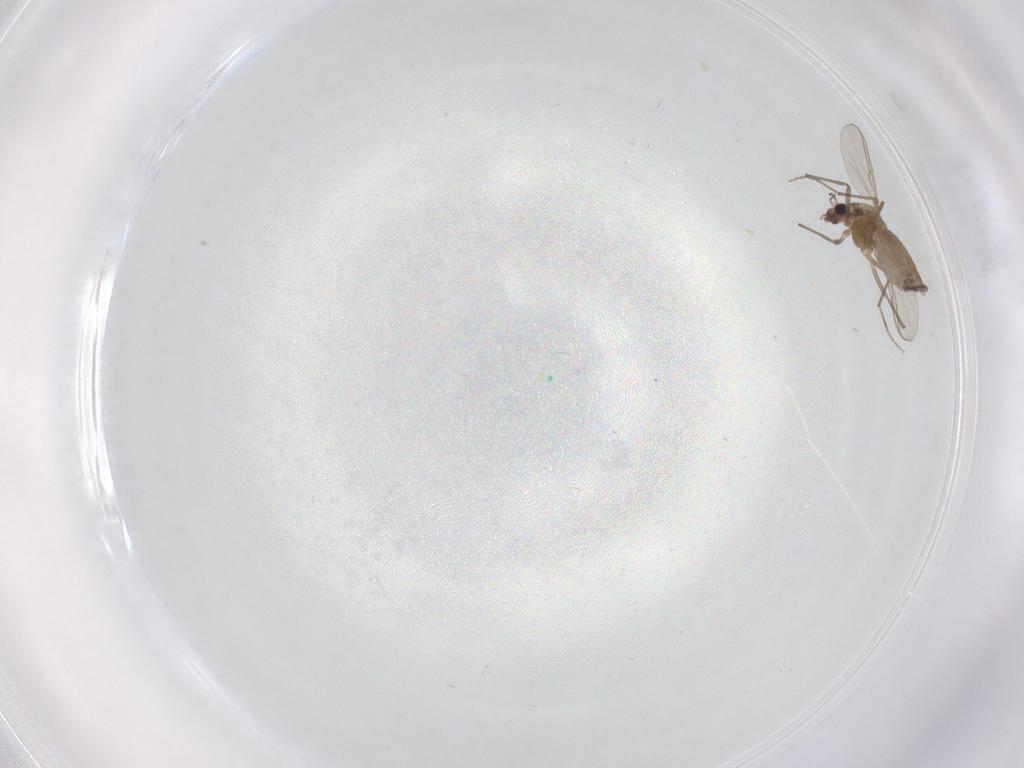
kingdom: Animalia
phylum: Arthropoda
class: Insecta
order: Diptera
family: Chironomidae
